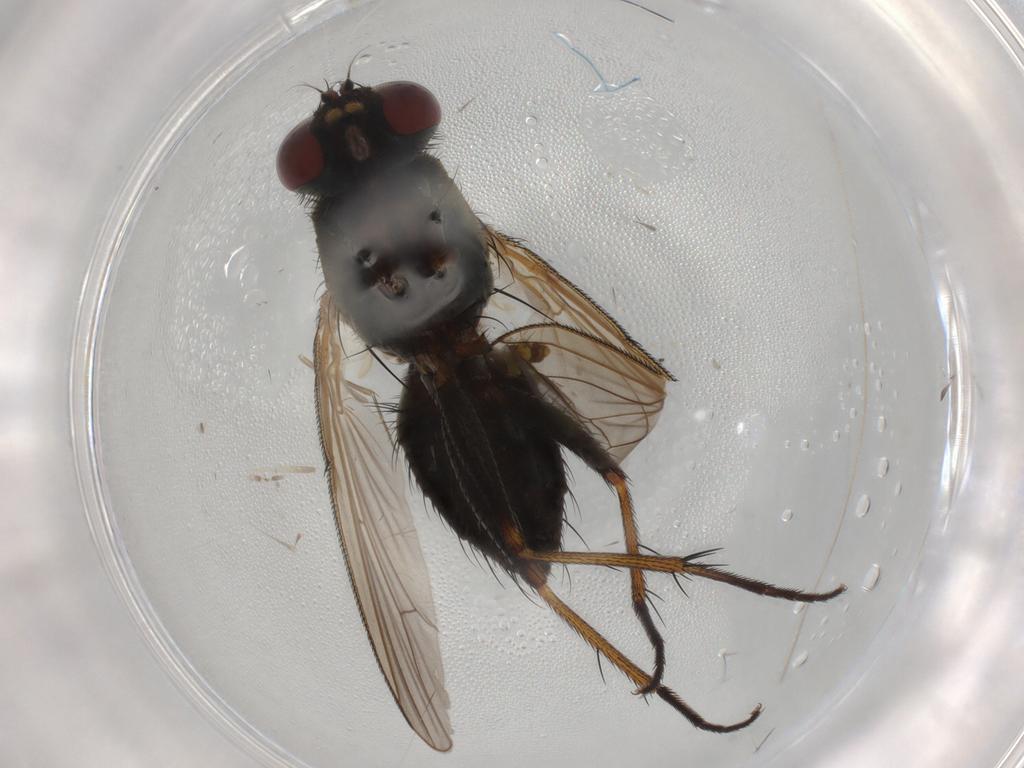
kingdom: Animalia
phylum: Arthropoda
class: Insecta
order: Diptera
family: Muscidae
